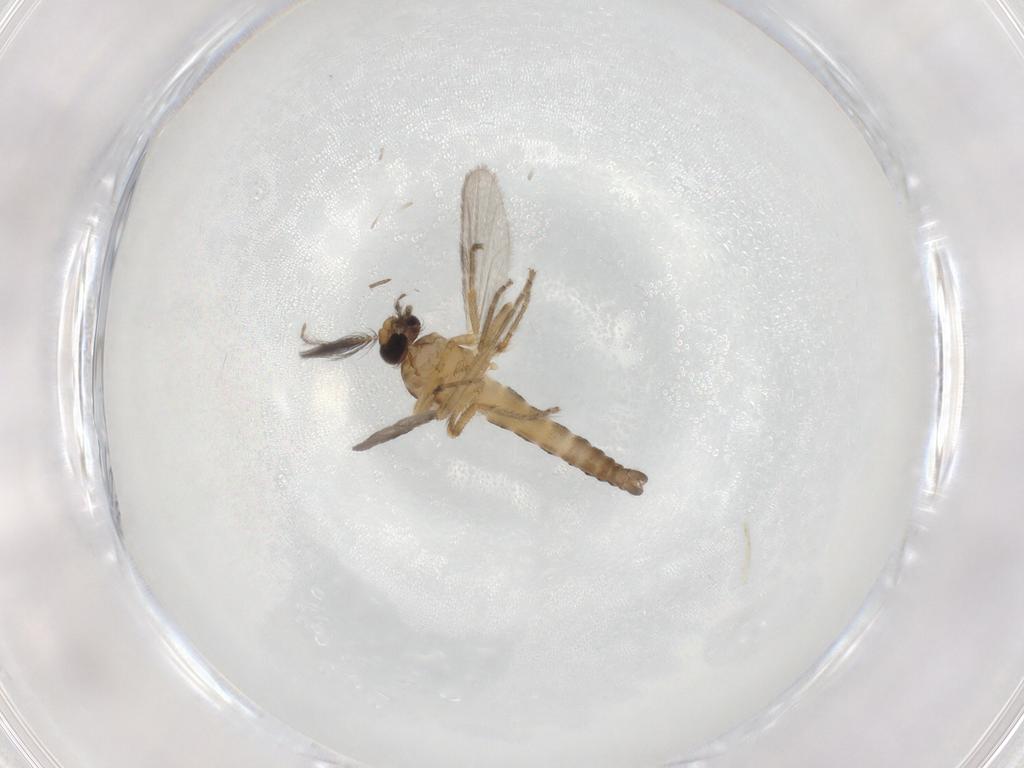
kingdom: Animalia
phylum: Arthropoda
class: Insecta
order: Diptera
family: Ceratopogonidae
